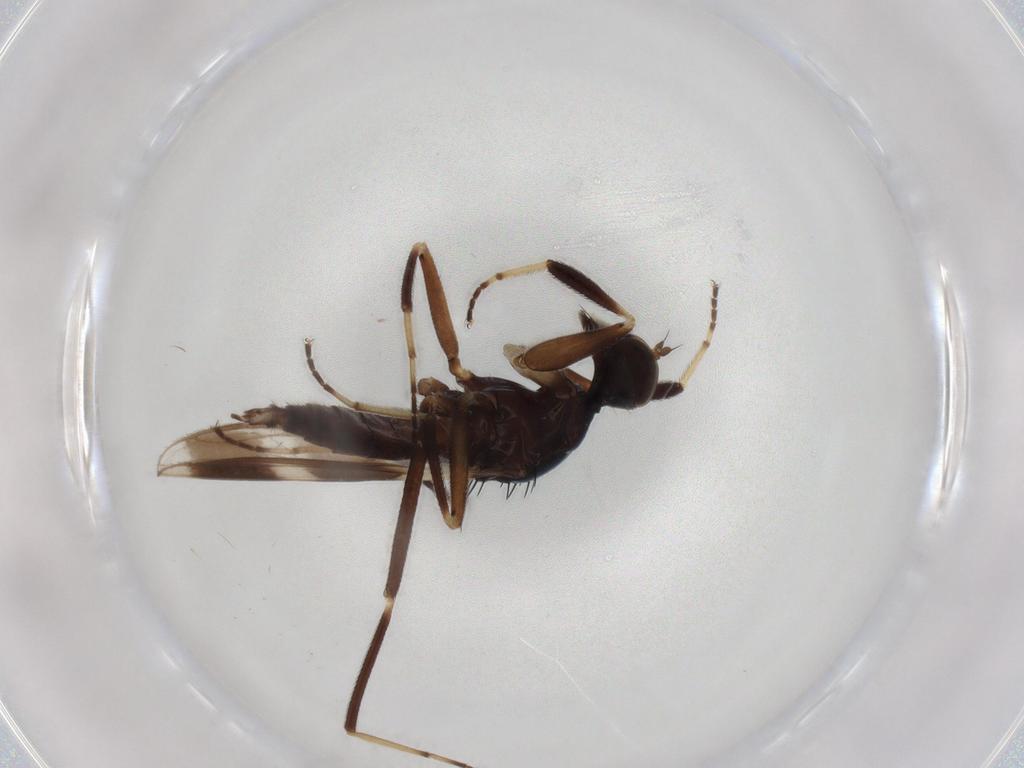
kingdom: Animalia
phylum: Arthropoda
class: Insecta
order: Diptera
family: Hybotidae
